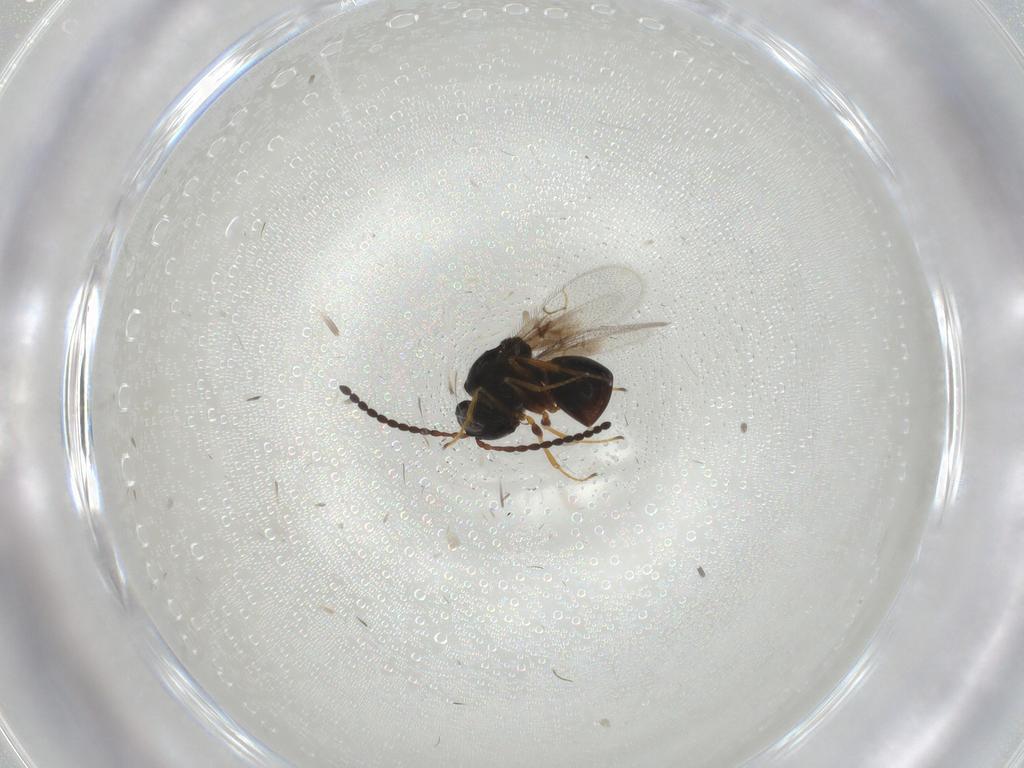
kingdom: Animalia
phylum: Arthropoda
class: Insecta
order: Hymenoptera
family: Figitidae
